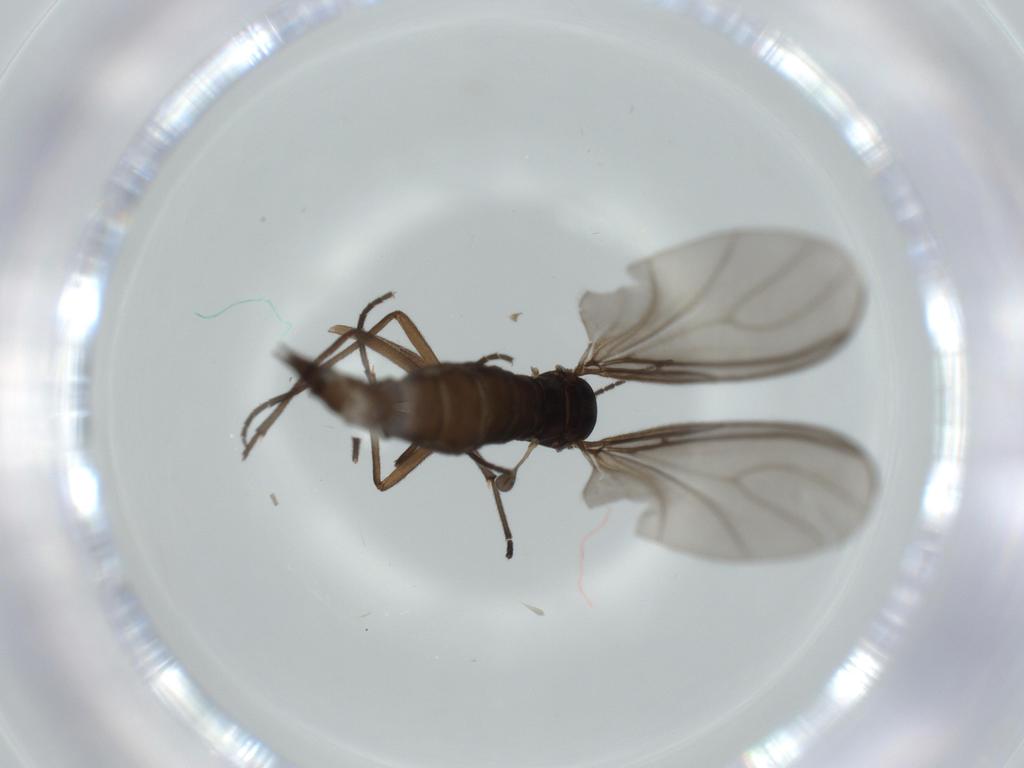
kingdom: Animalia
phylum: Arthropoda
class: Insecta
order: Diptera
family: Sciaridae
